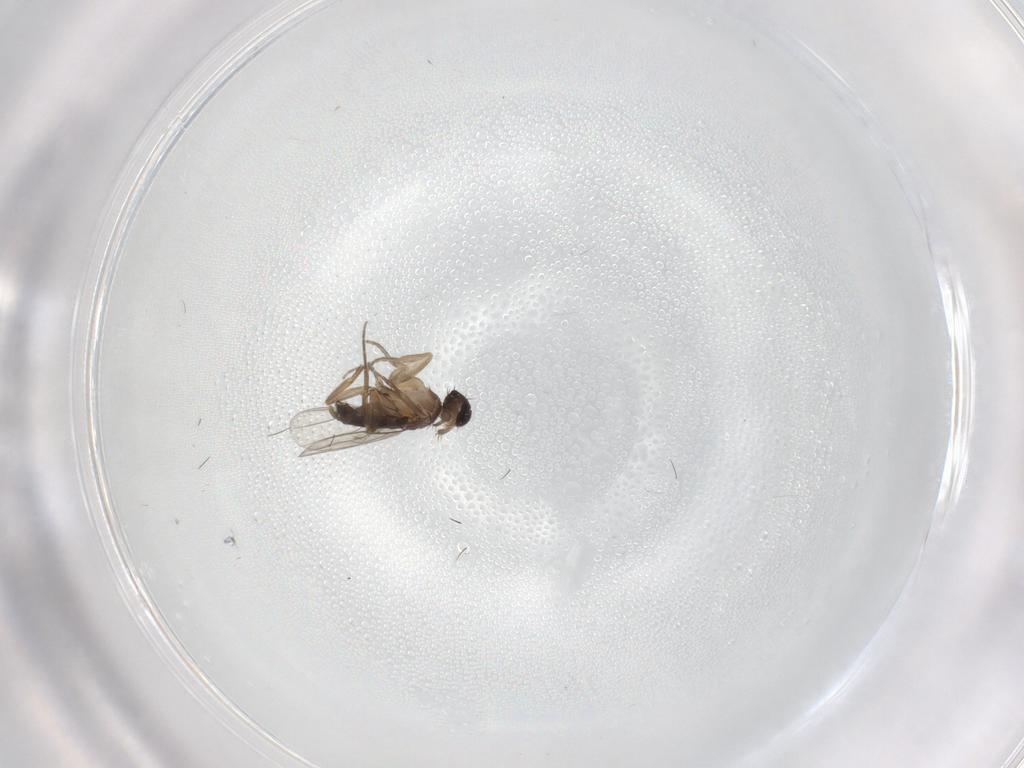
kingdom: Animalia
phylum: Arthropoda
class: Insecta
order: Diptera
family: Phoridae
